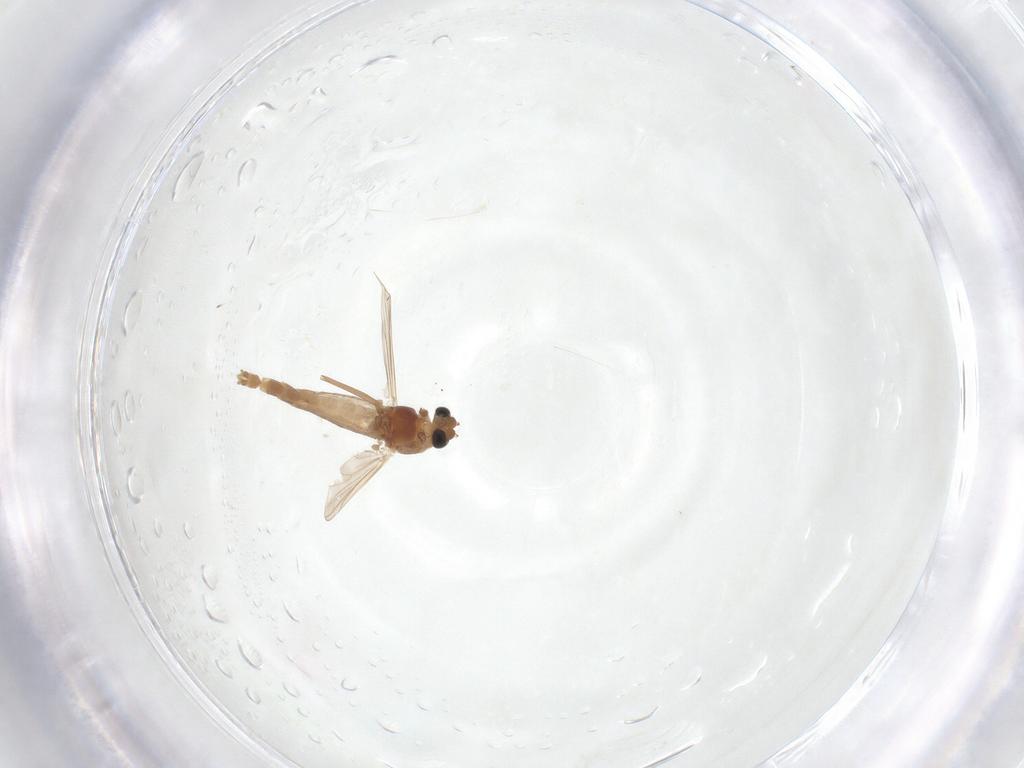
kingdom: Animalia
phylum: Arthropoda
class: Insecta
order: Diptera
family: Chironomidae
